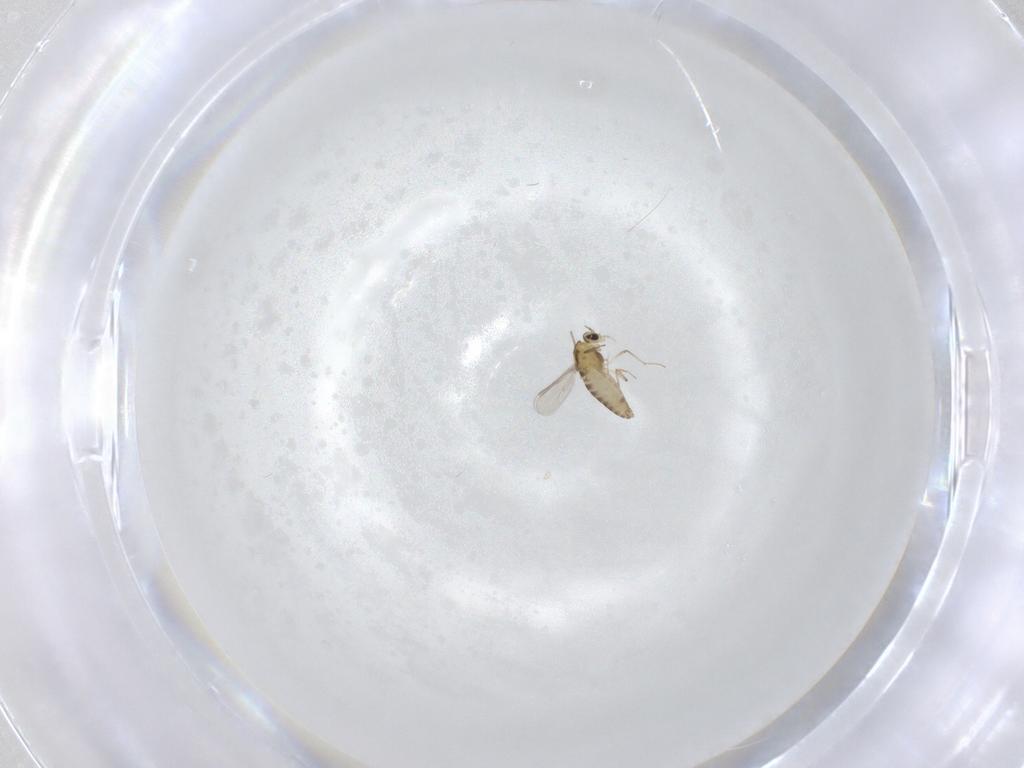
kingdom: Animalia
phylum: Arthropoda
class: Insecta
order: Diptera
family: Chironomidae
